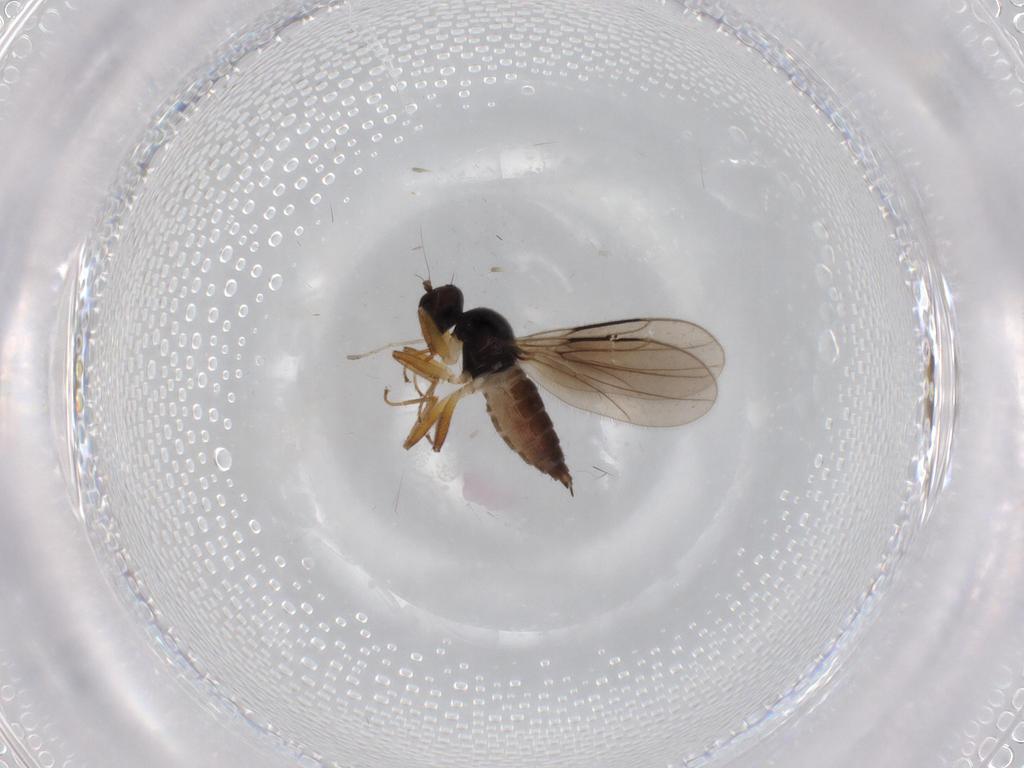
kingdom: Animalia
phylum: Arthropoda
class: Insecta
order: Diptera
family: Hybotidae
